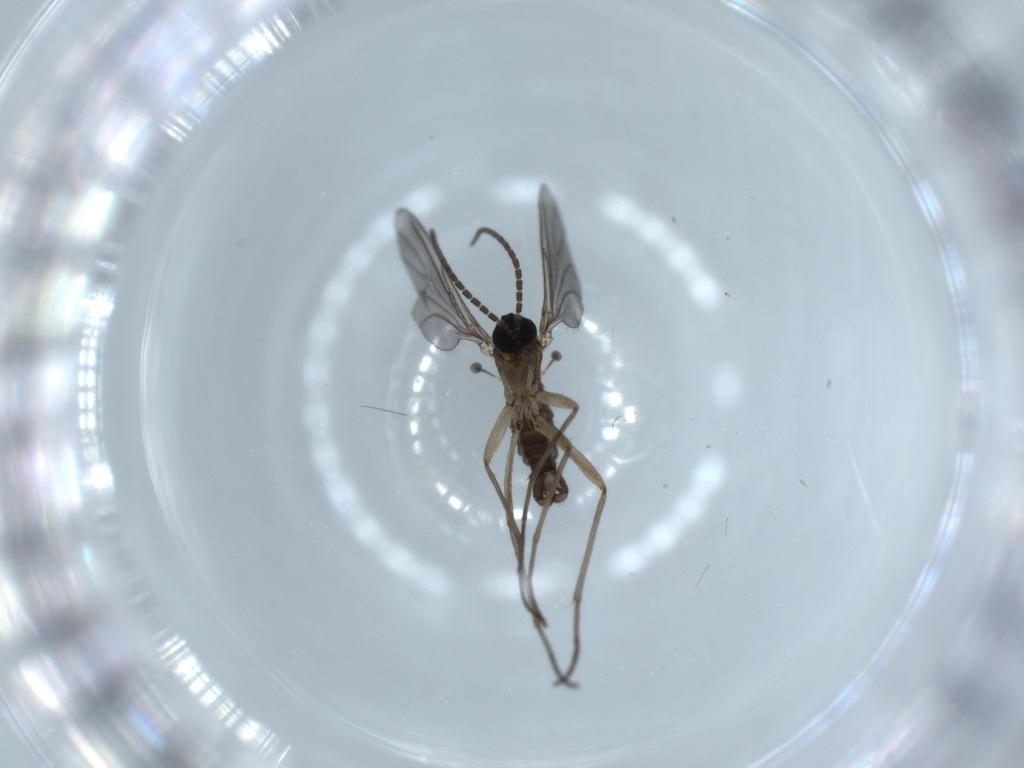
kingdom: Animalia
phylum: Arthropoda
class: Insecta
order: Diptera
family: Sciaridae
